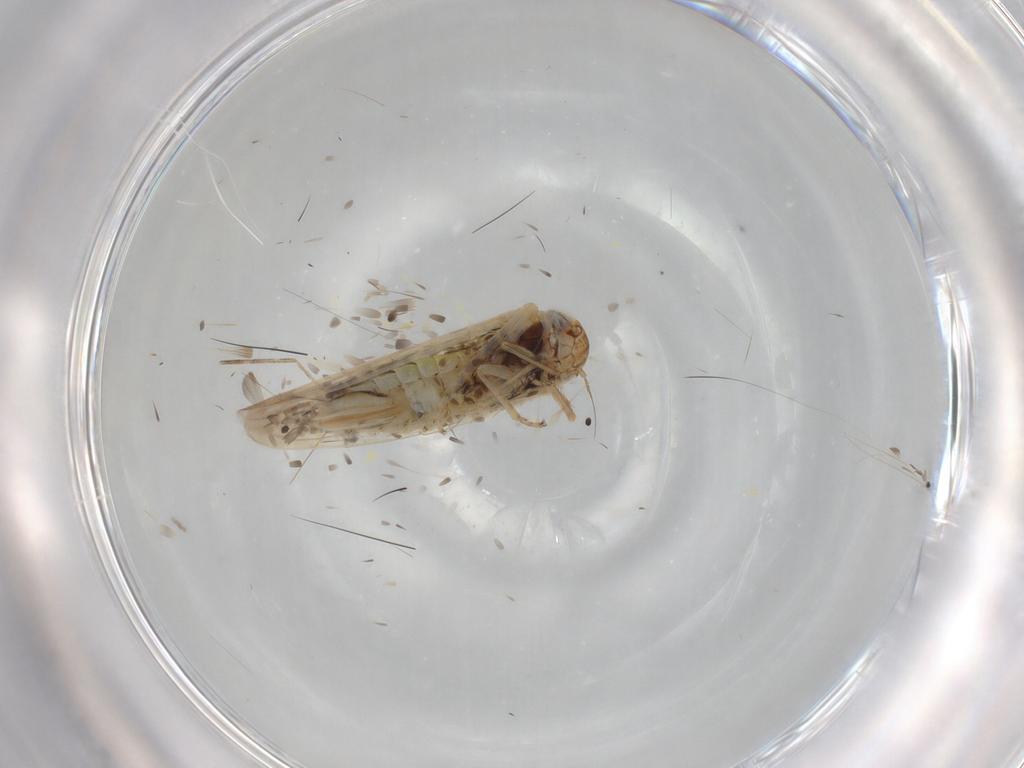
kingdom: Animalia
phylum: Arthropoda
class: Insecta
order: Hemiptera
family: Cicadellidae
